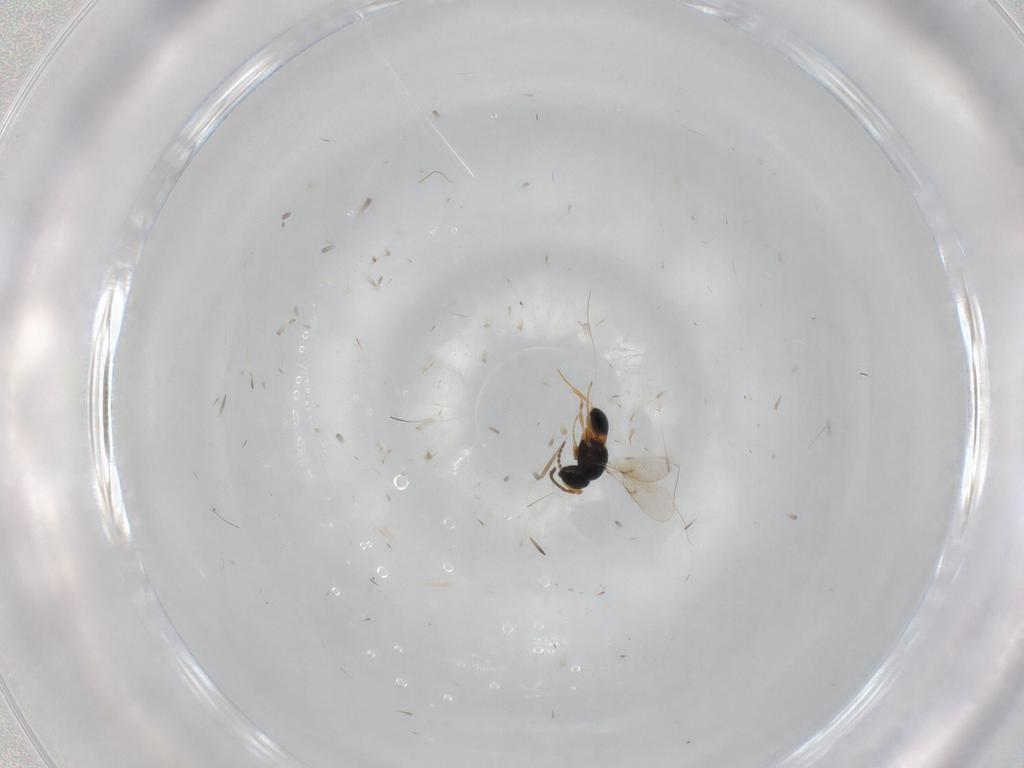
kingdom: Animalia
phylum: Arthropoda
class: Insecta
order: Hymenoptera
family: Scelionidae
